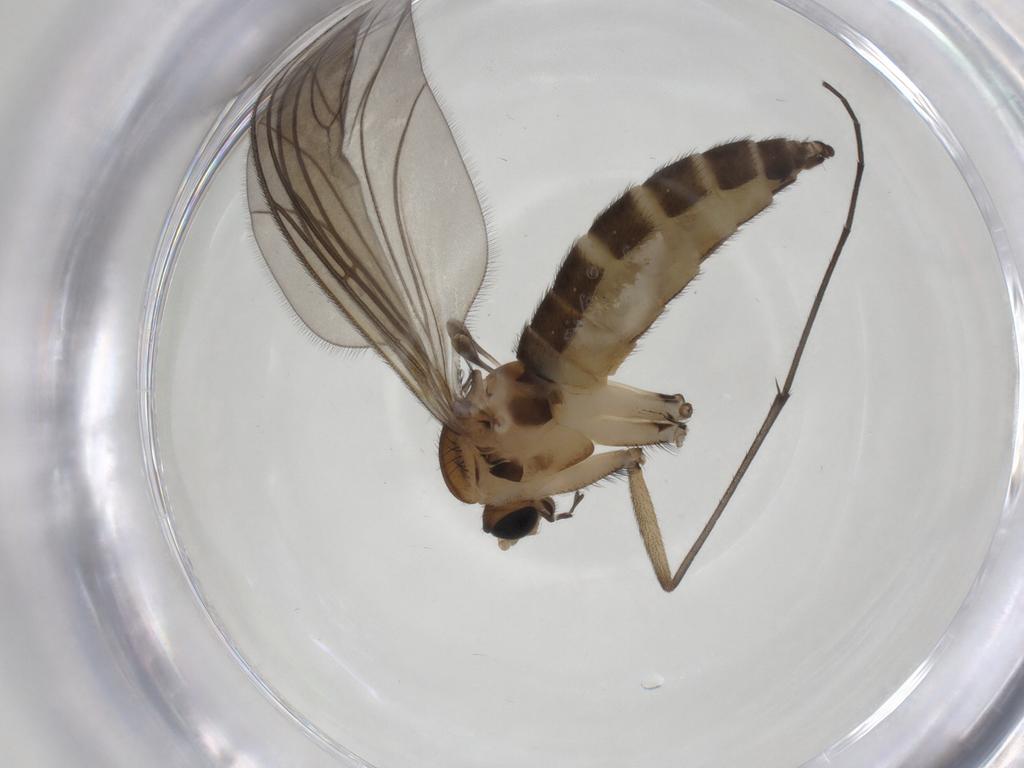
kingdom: Animalia
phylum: Arthropoda
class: Insecta
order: Diptera
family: Sciaridae
